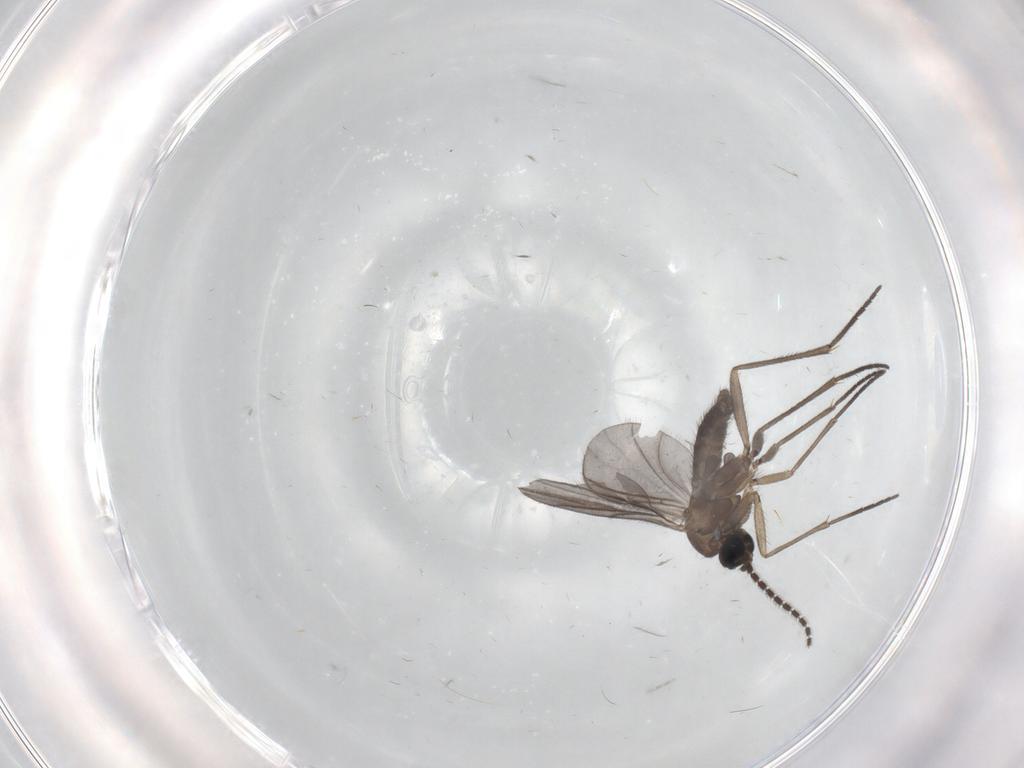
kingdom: Animalia
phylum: Arthropoda
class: Insecta
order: Diptera
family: Sciaridae
